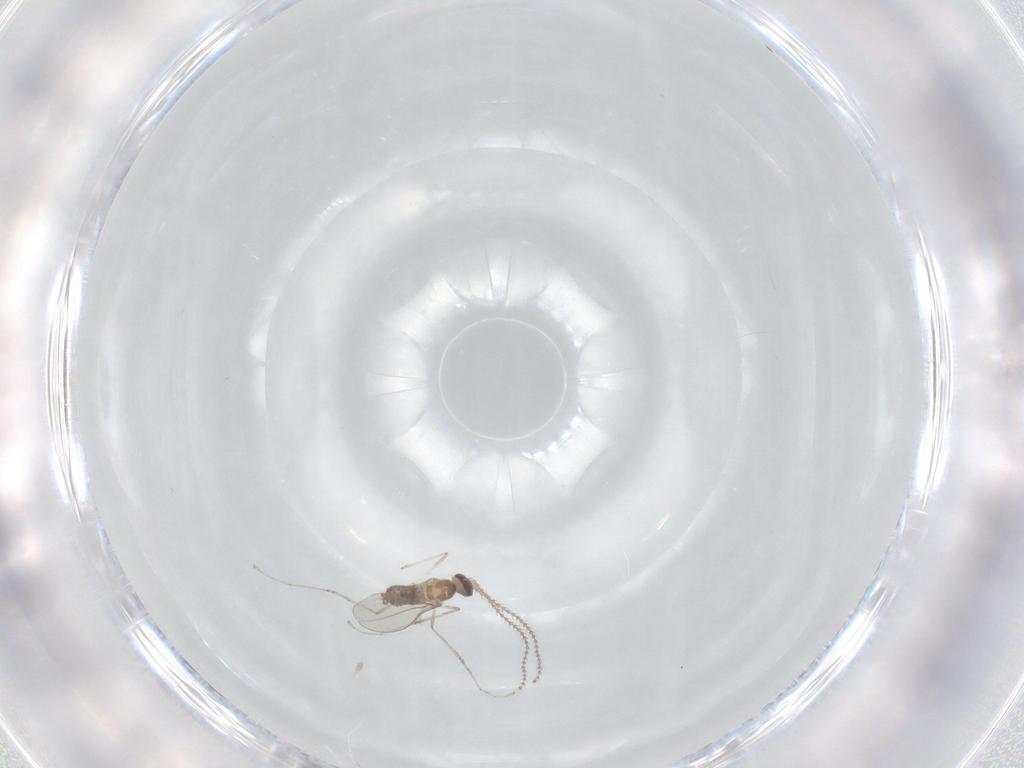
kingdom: Animalia
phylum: Arthropoda
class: Insecta
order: Diptera
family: Cecidomyiidae
